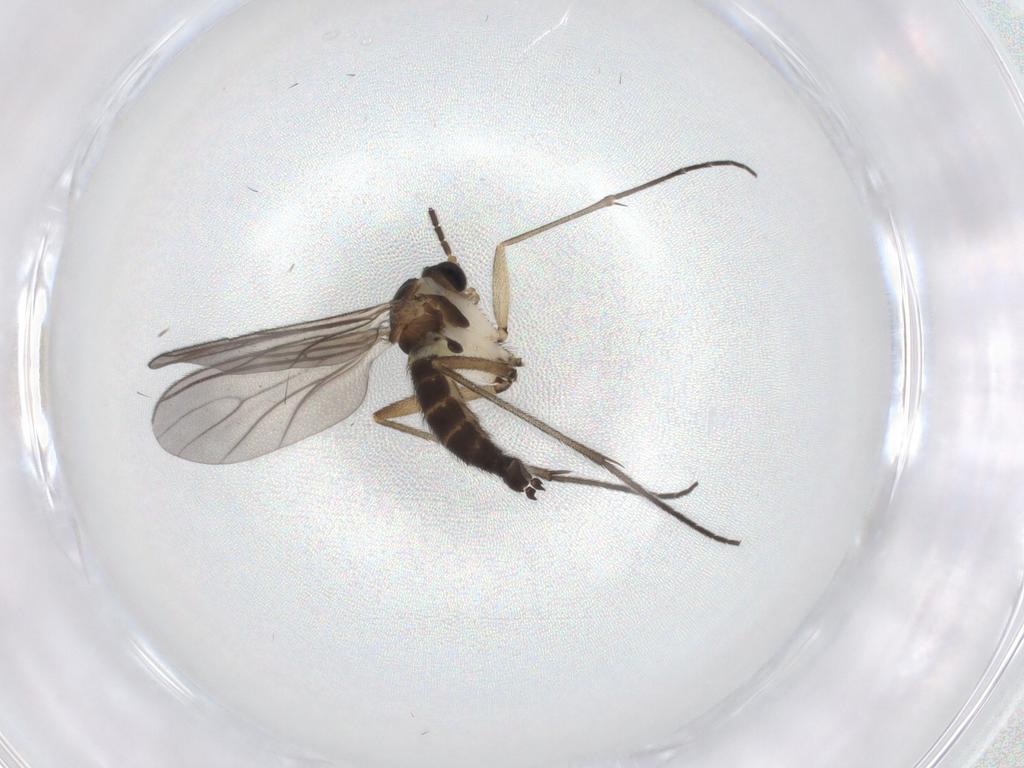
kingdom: Animalia
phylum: Arthropoda
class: Insecta
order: Diptera
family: Sciaridae
